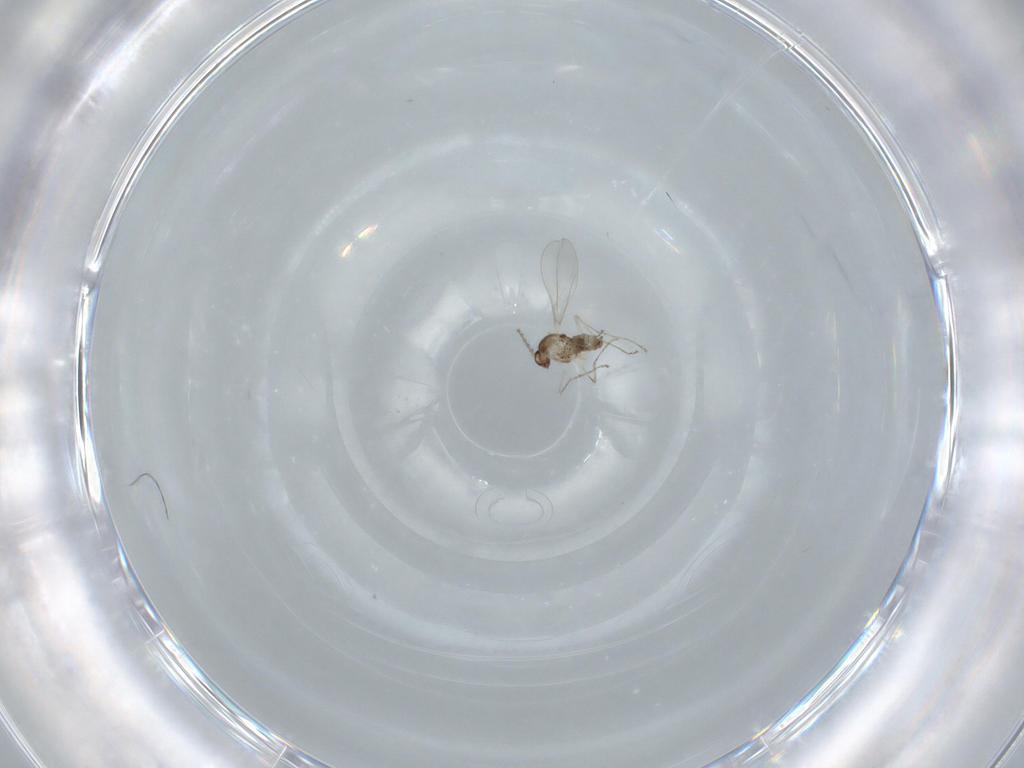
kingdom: Animalia
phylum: Arthropoda
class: Insecta
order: Diptera
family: Cecidomyiidae
